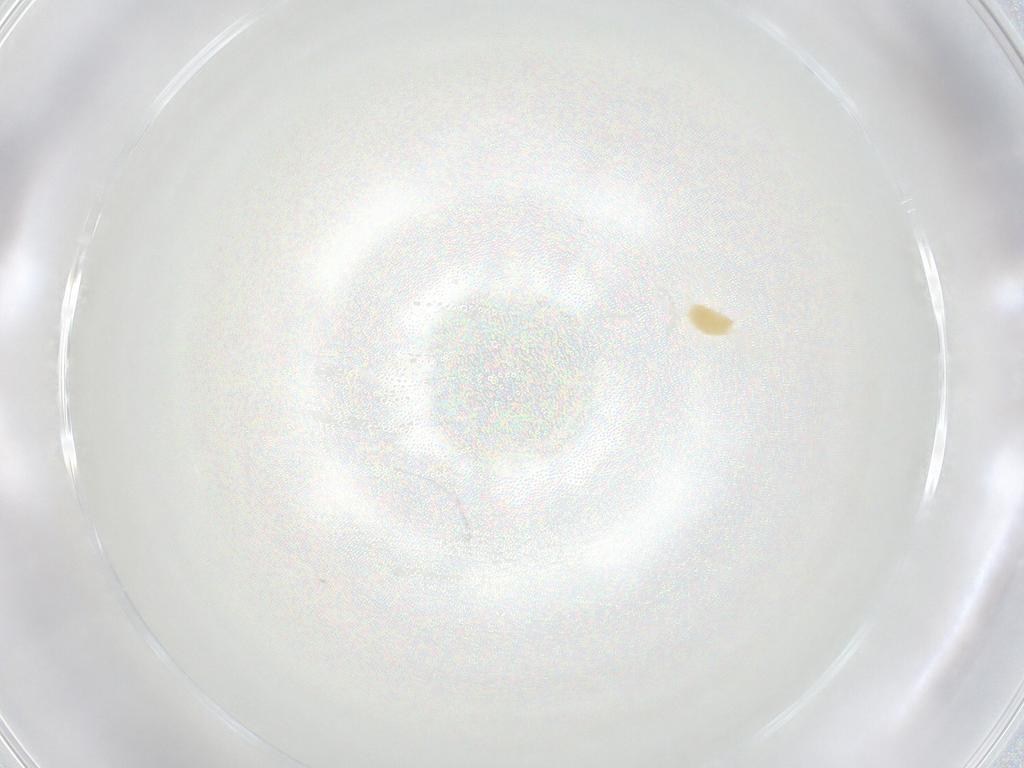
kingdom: Animalia
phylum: Arthropoda
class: Arachnida
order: Trombidiformes
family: Tetranychidae
